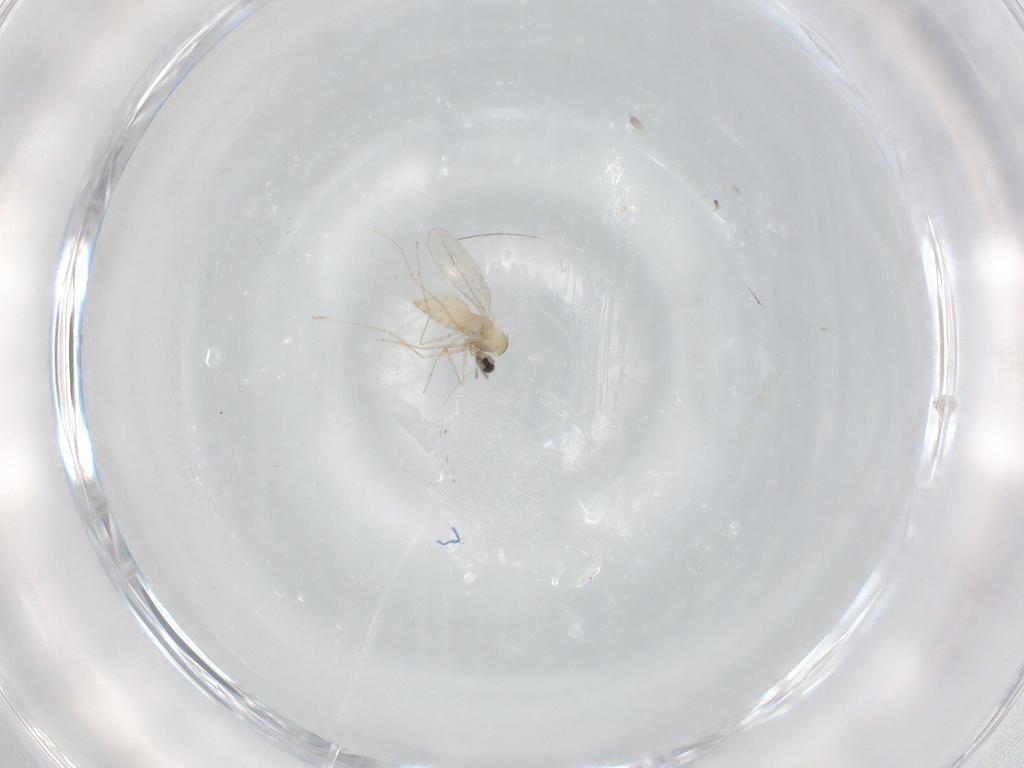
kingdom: Animalia
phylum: Arthropoda
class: Insecta
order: Diptera
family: Cecidomyiidae
